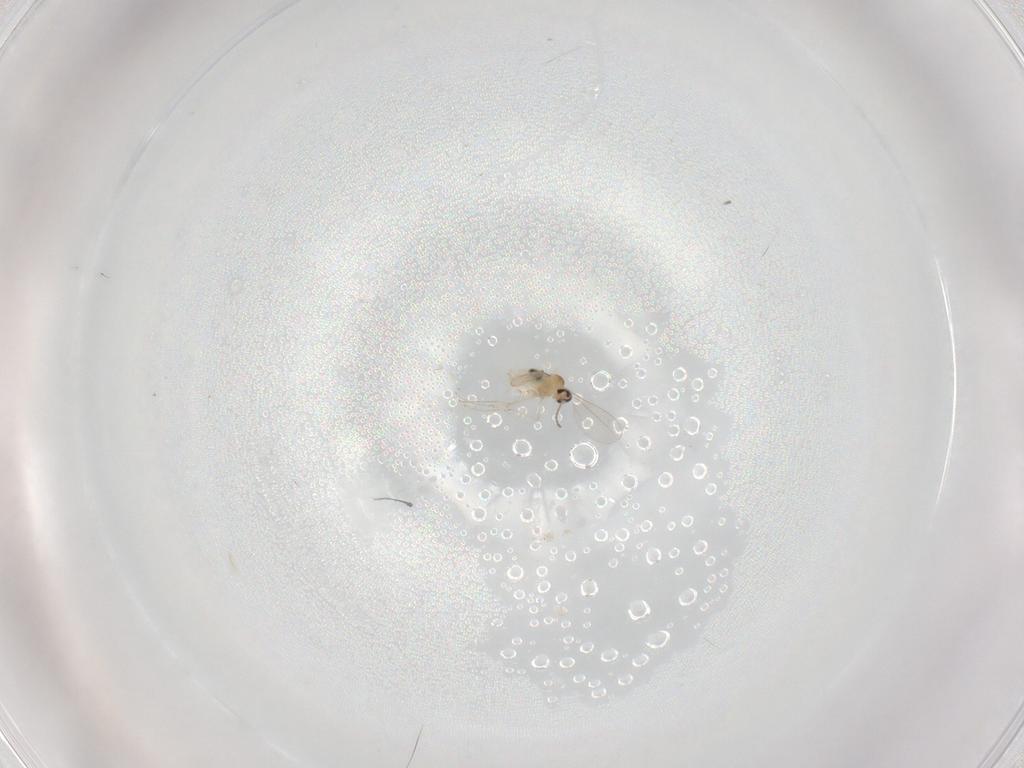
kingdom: Animalia
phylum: Arthropoda
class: Insecta
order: Diptera
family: Cecidomyiidae
